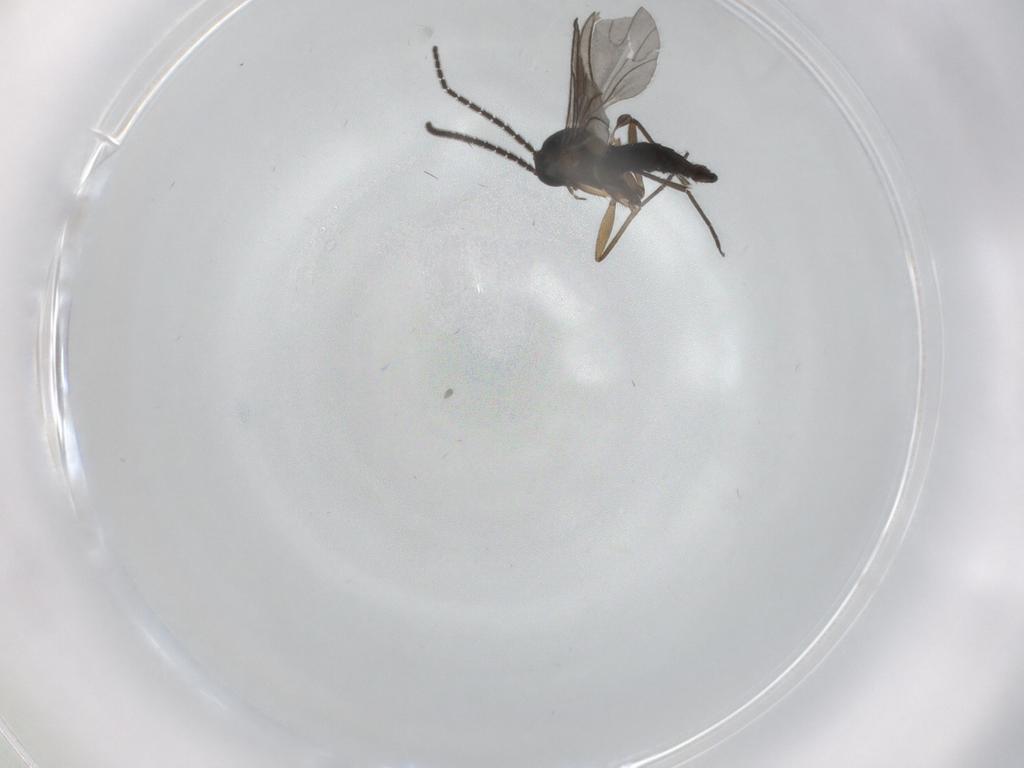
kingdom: Animalia
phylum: Arthropoda
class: Insecta
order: Diptera
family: Sciaridae
